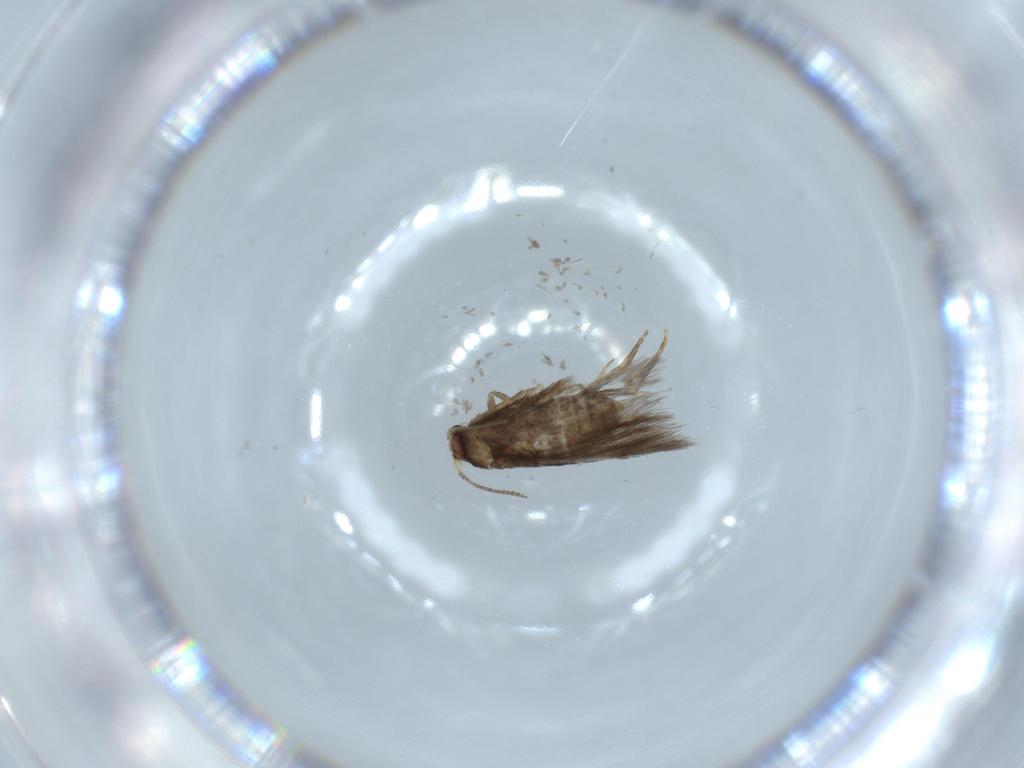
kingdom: Animalia
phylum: Arthropoda
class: Insecta
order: Lepidoptera
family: Nepticulidae
